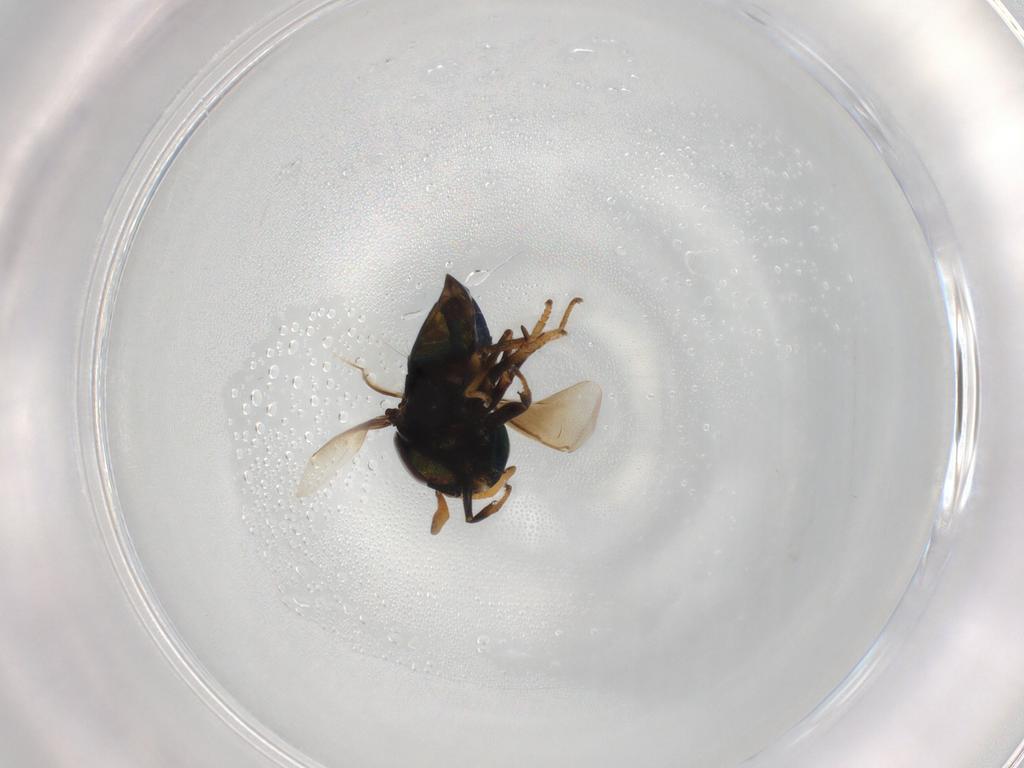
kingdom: Animalia
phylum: Arthropoda
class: Insecta
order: Hymenoptera
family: Encyrtidae
